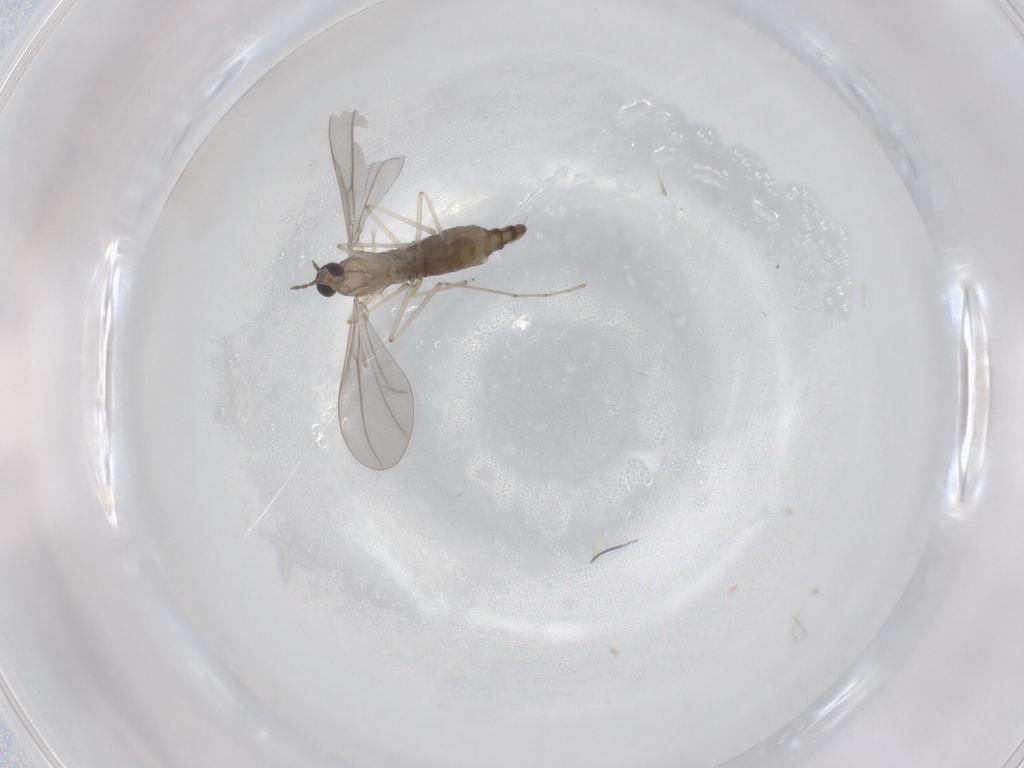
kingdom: Animalia
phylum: Arthropoda
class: Insecta
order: Diptera
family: Cecidomyiidae
